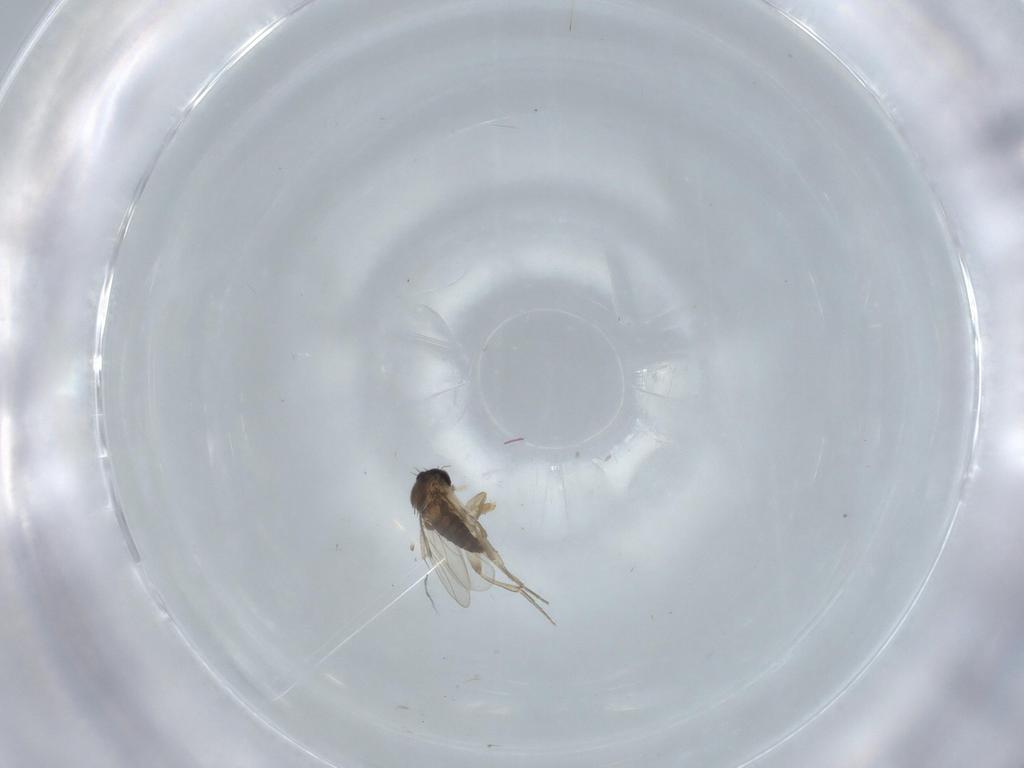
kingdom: Animalia
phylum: Arthropoda
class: Insecta
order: Diptera
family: Phoridae
